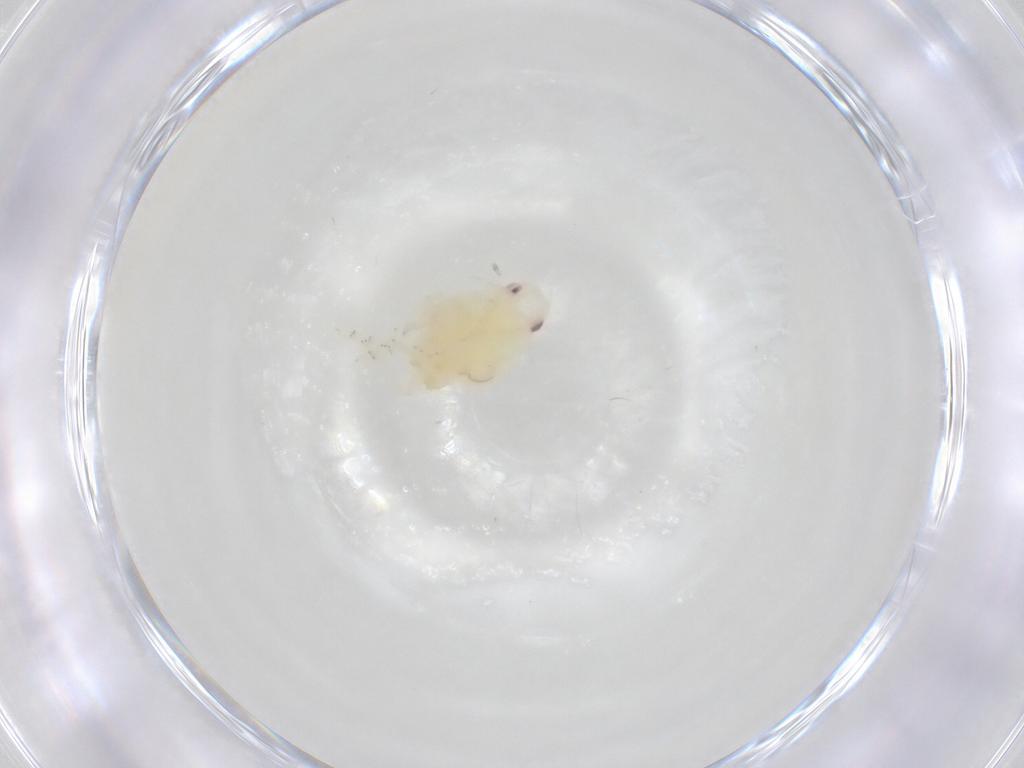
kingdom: Animalia
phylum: Arthropoda
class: Insecta
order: Hemiptera
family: Flatidae
